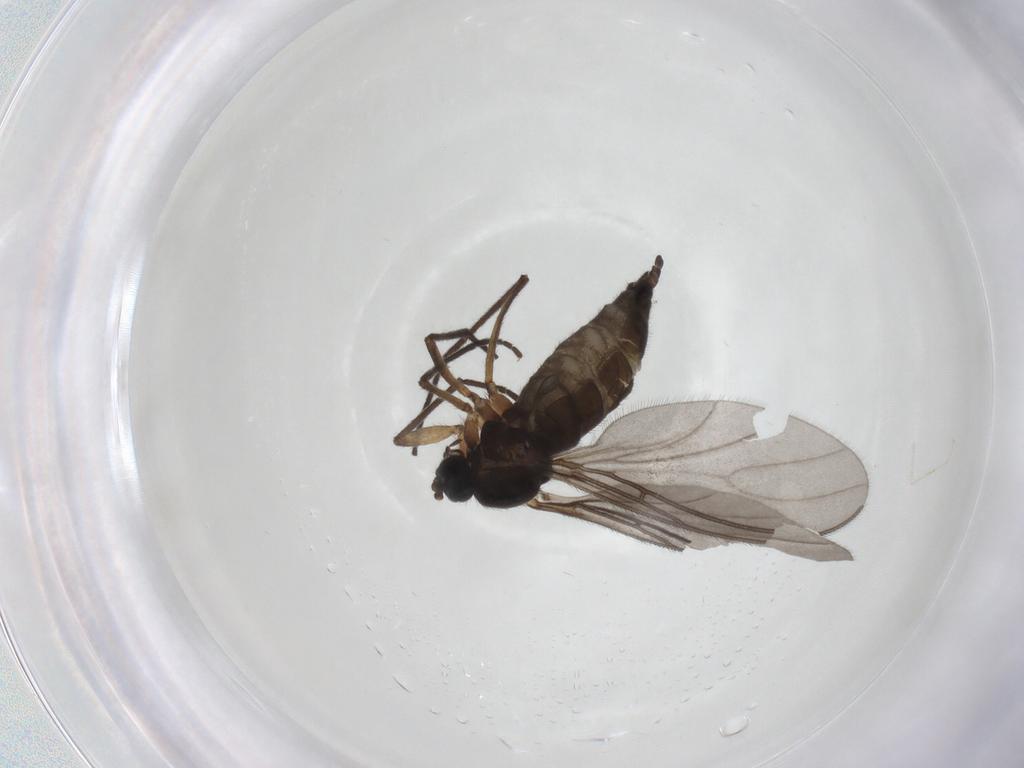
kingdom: Animalia
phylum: Arthropoda
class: Insecta
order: Diptera
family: Sciaridae
